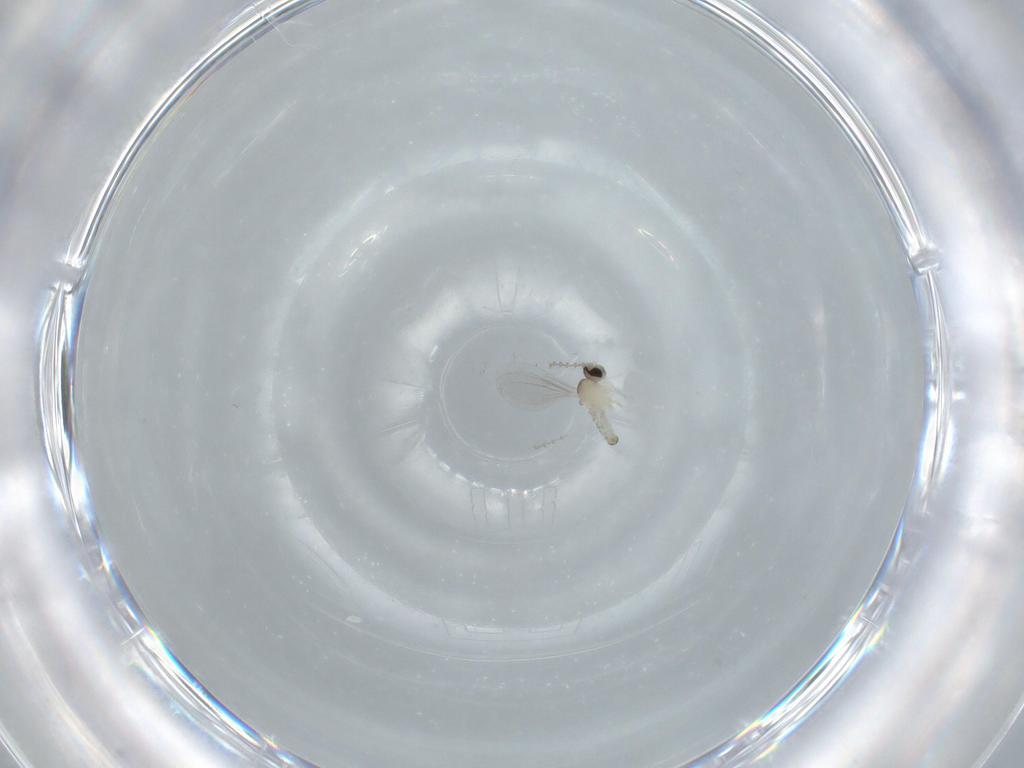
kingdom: Animalia
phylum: Arthropoda
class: Insecta
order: Diptera
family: Cecidomyiidae
